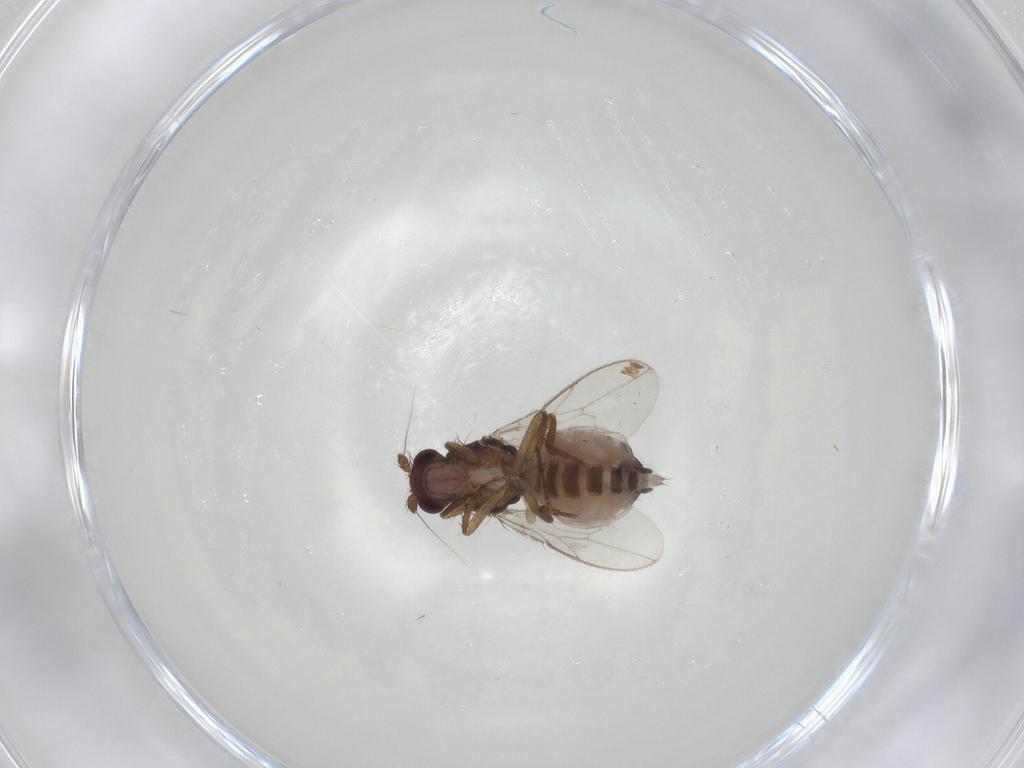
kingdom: Animalia
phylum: Arthropoda
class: Insecta
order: Diptera
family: Sphaeroceridae
